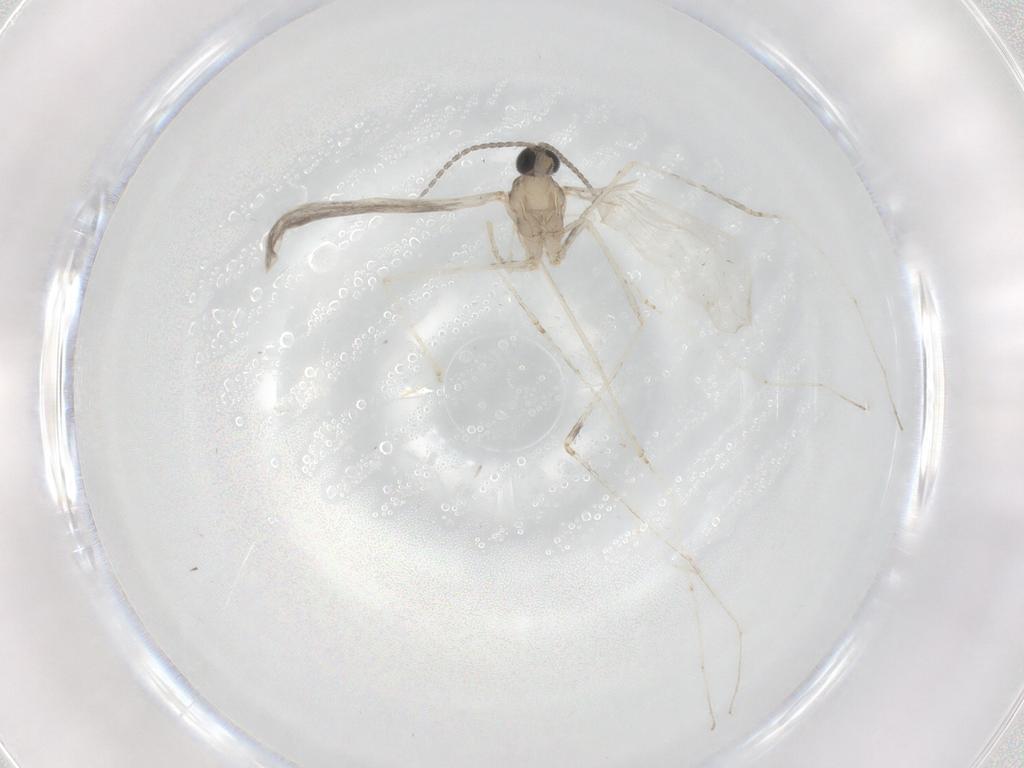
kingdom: Animalia
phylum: Arthropoda
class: Insecta
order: Diptera
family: Cecidomyiidae
